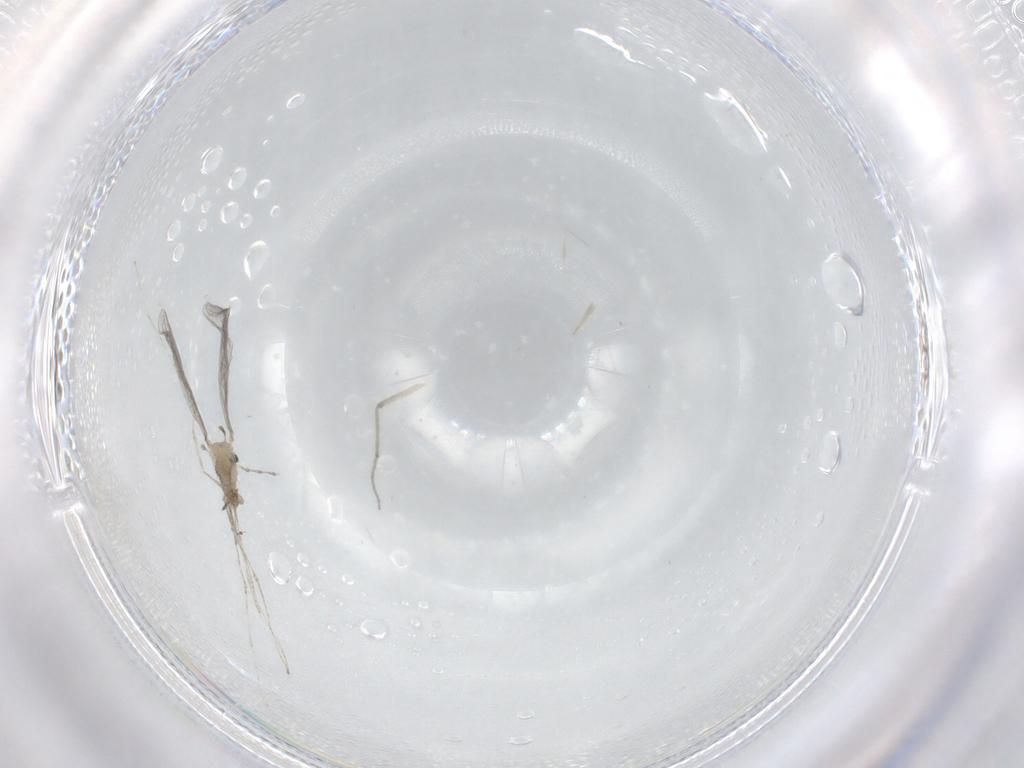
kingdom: Animalia
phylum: Arthropoda
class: Insecta
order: Diptera
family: Cecidomyiidae
